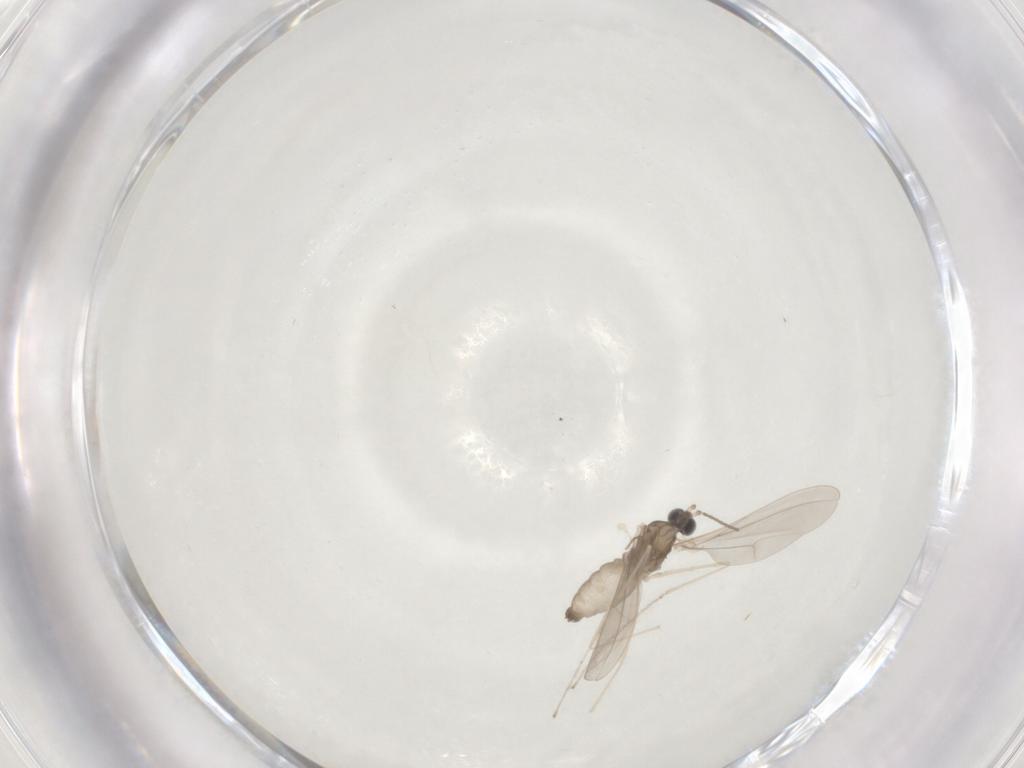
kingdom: Animalia
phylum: Arthropoda
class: Insecta
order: Diptera
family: Cecidomyiidae
